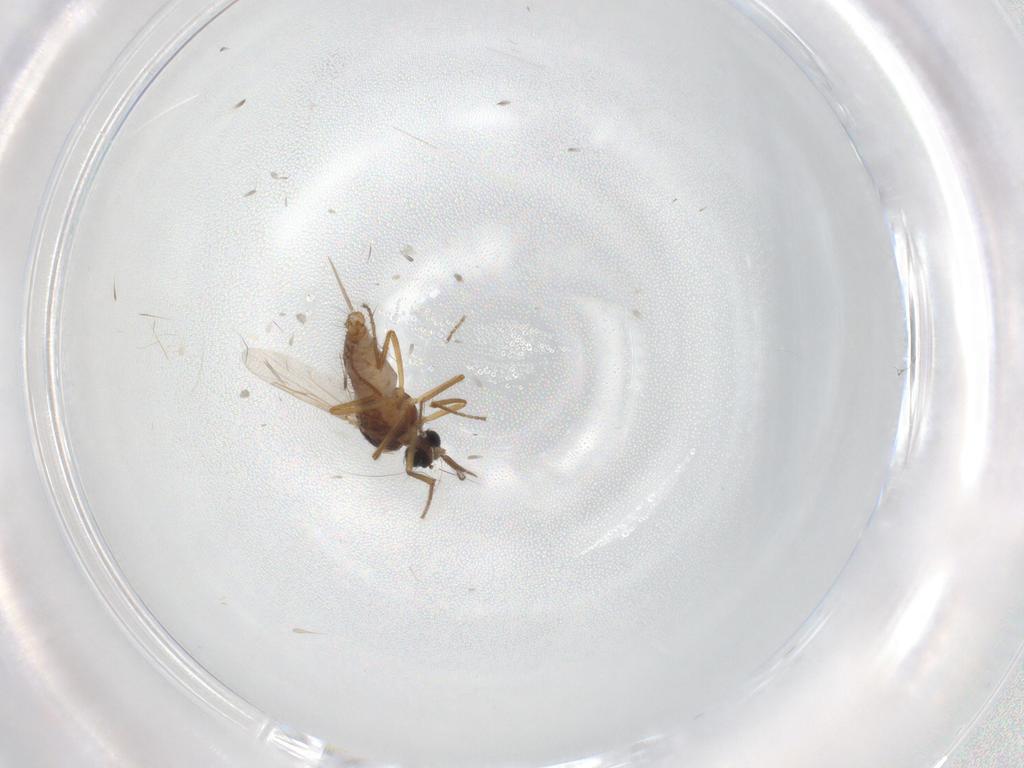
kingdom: Animalia
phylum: Arthropoda
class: Insecta
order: Diptera
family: Ceratopogonidae
